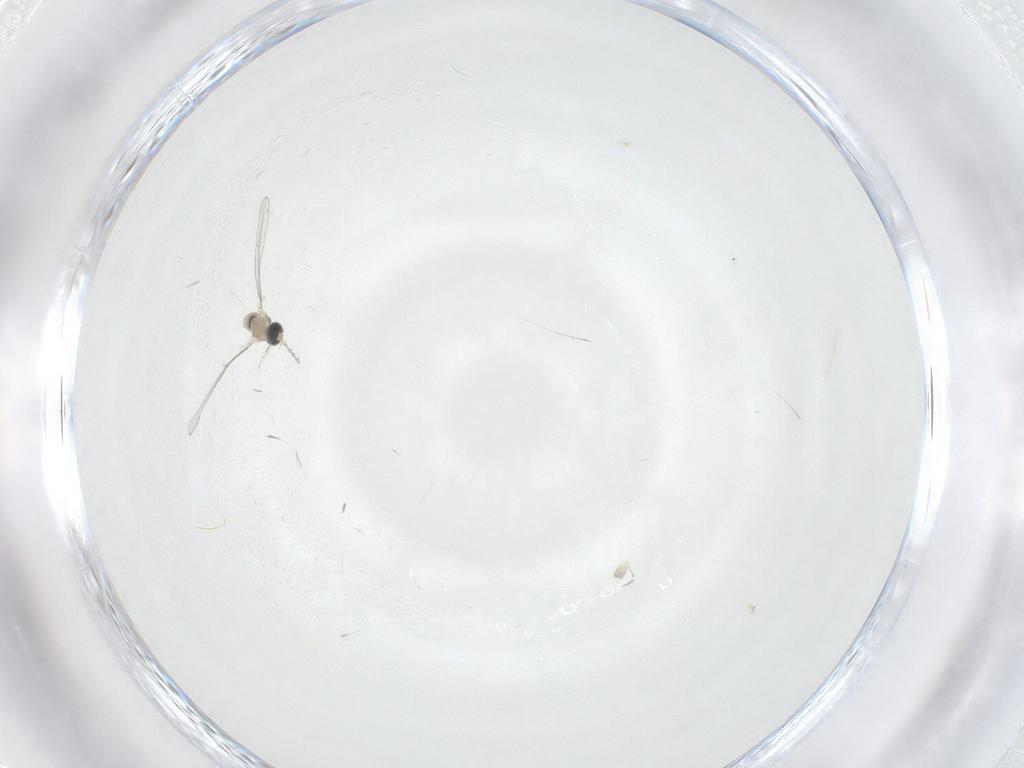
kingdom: Animalia
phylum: Arthropoda
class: Insecta
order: Diptera
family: Cecidomyiidae
